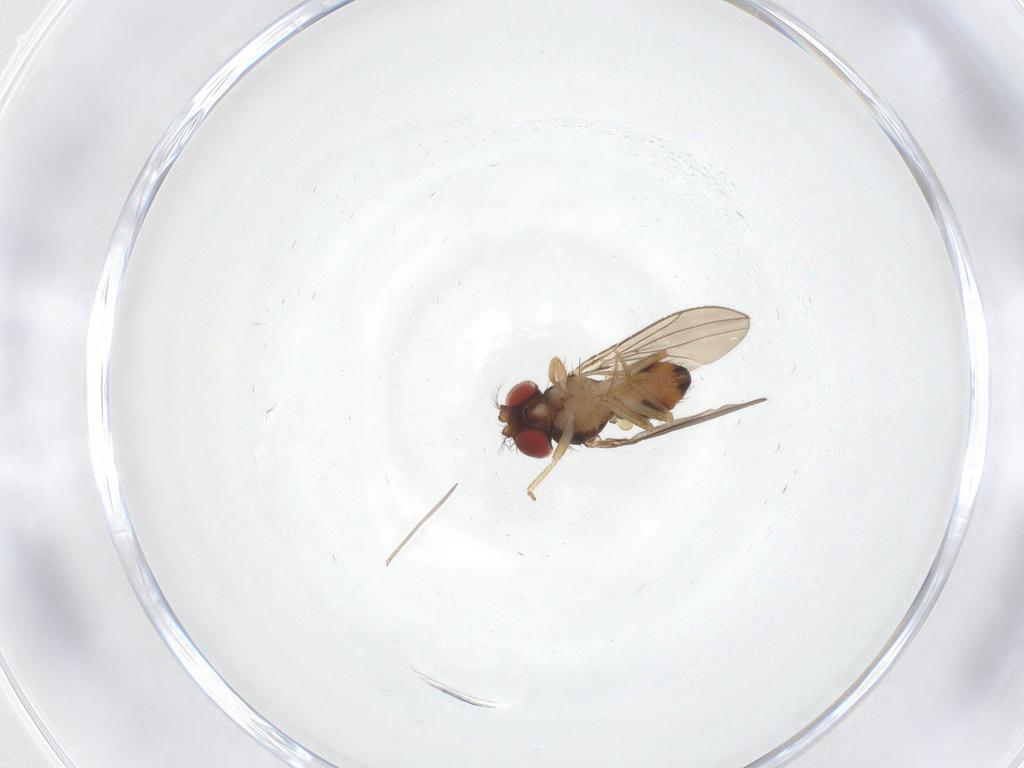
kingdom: Animalia
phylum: Arthropoda
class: Insecta
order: Diptera
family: Drosophilidae
